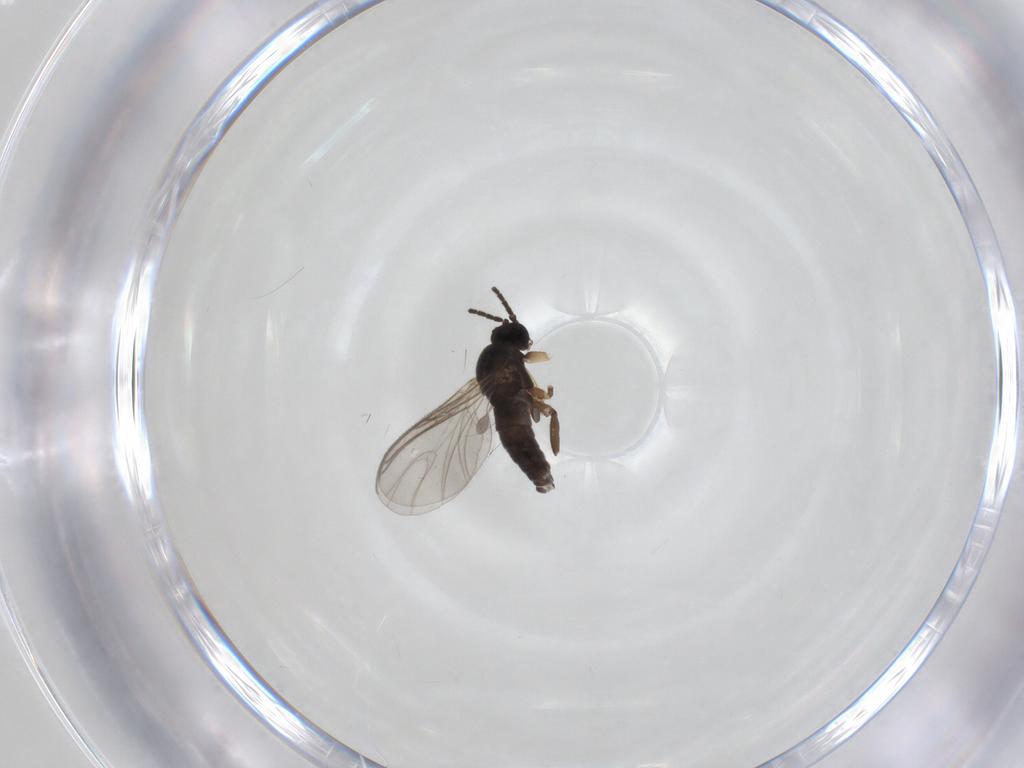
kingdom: Animalia
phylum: Arthropoda
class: Insecta
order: Diptera
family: Sciaridae
